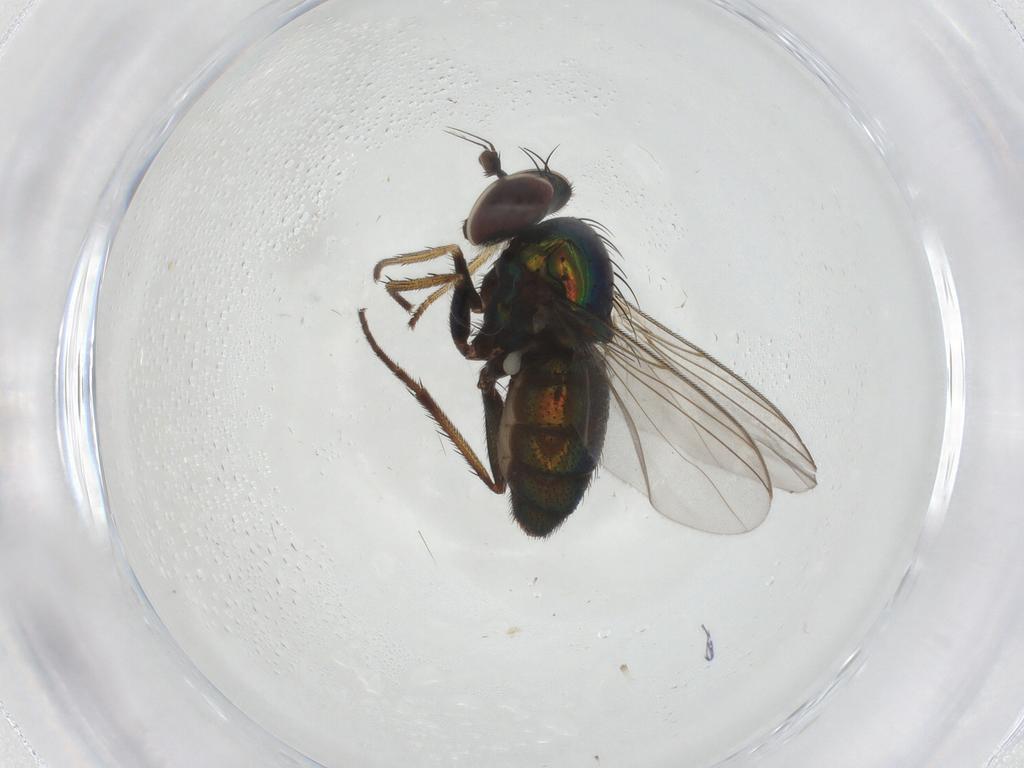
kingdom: Animalia
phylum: Arthropoda
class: Insecta
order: Diptera
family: Dolichopodidae
